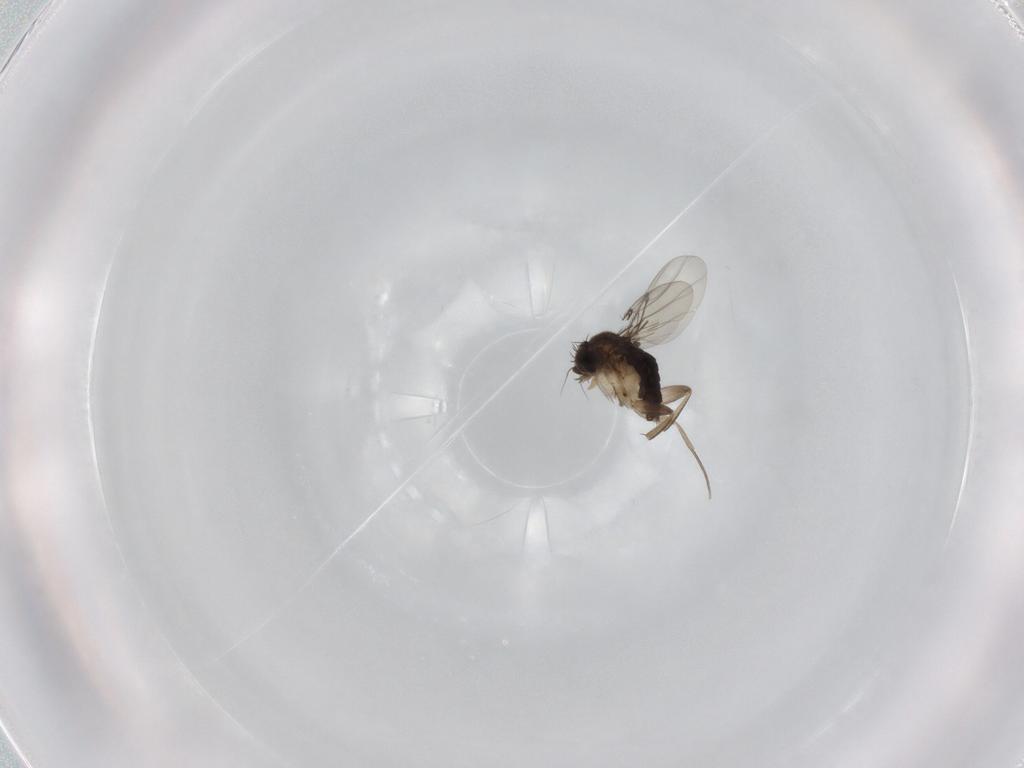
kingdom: Animalia
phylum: Arthropoda
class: Insecta
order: Diptera
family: Phoridae
